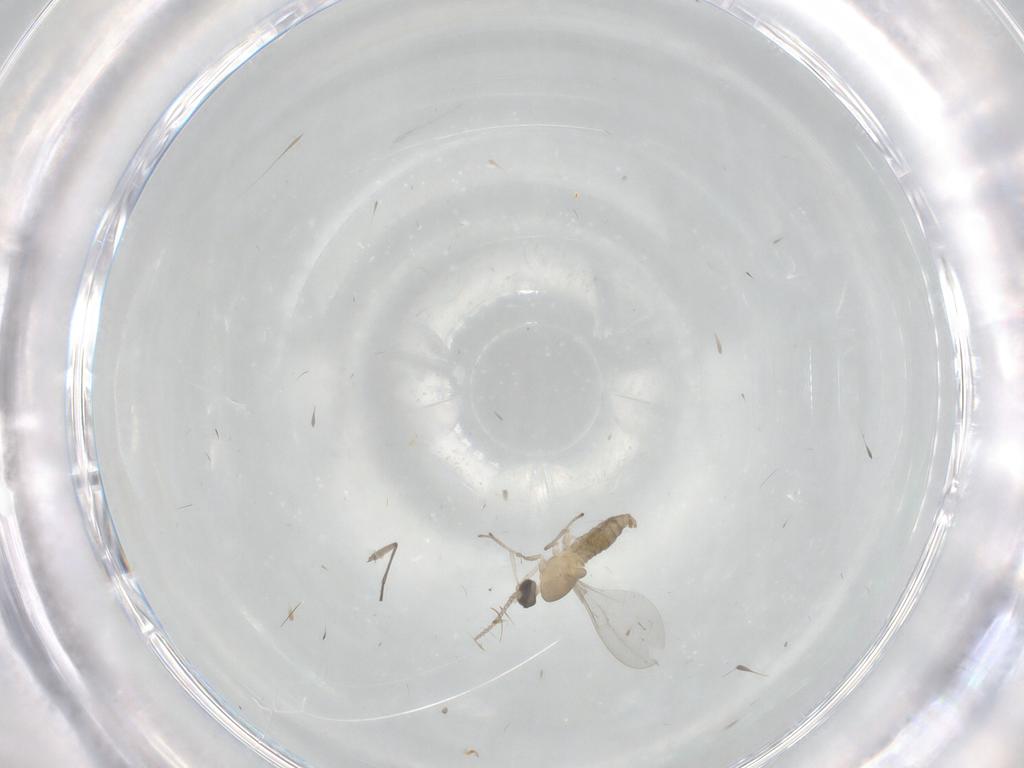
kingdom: Animalia
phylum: Arthropoda
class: Insecta
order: Diptera
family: Cecidomyiidae
